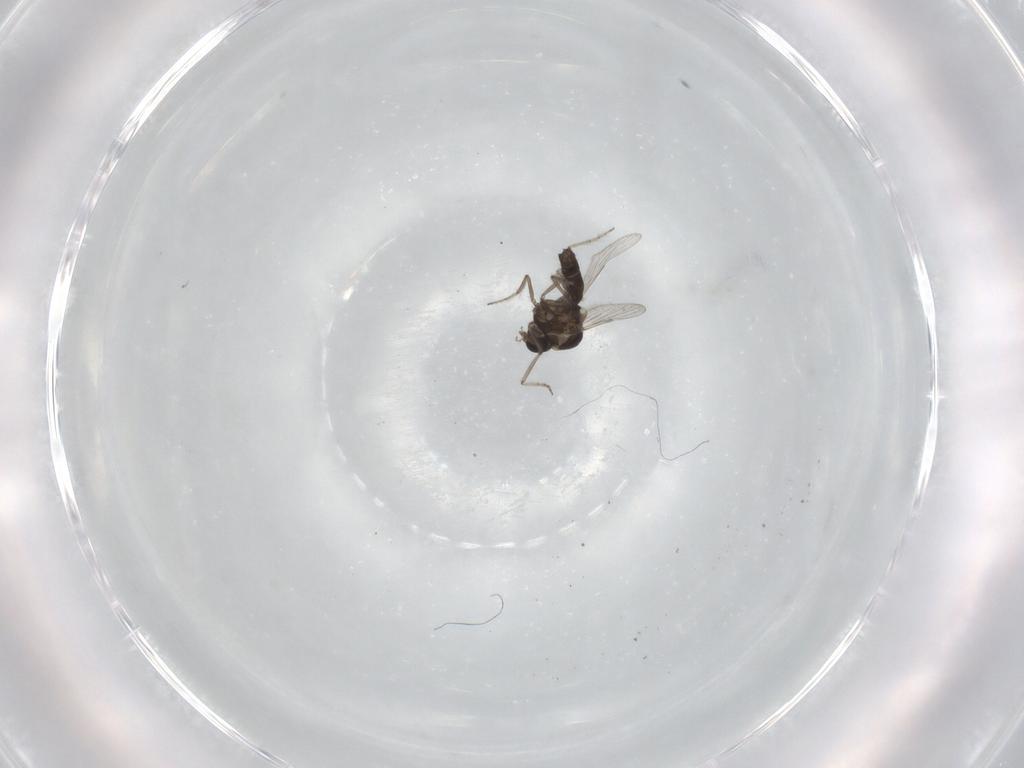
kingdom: Animalia
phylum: Arthropoda
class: Insecta
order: Diptera
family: Ceratopogonidae
